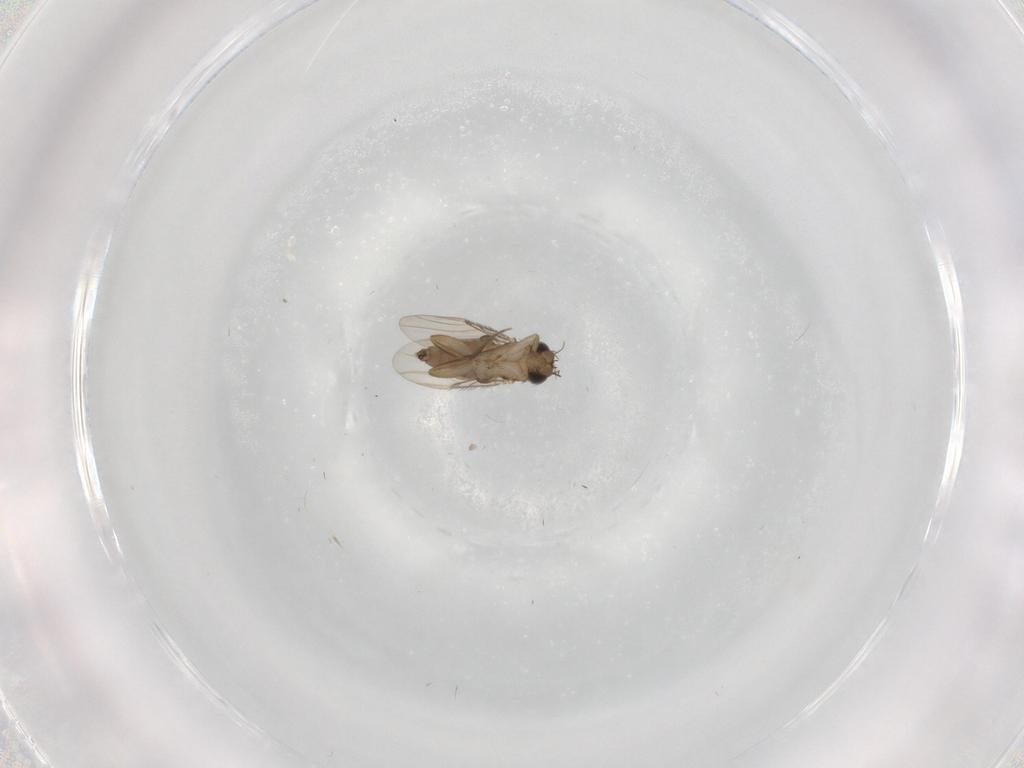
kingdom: Animalia
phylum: Arthropoda
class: Insecta
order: Diptera
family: Phoridae
